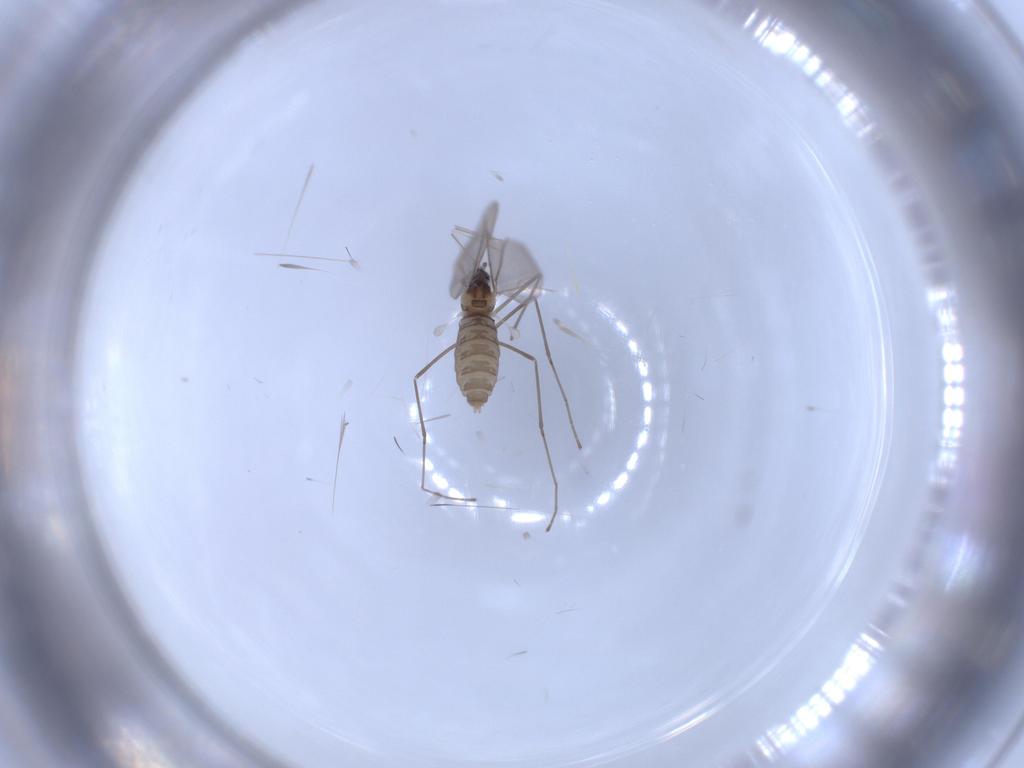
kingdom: Animalia
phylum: Arthropoda
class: Insecta
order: Diptera
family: Cecidomyiidae
